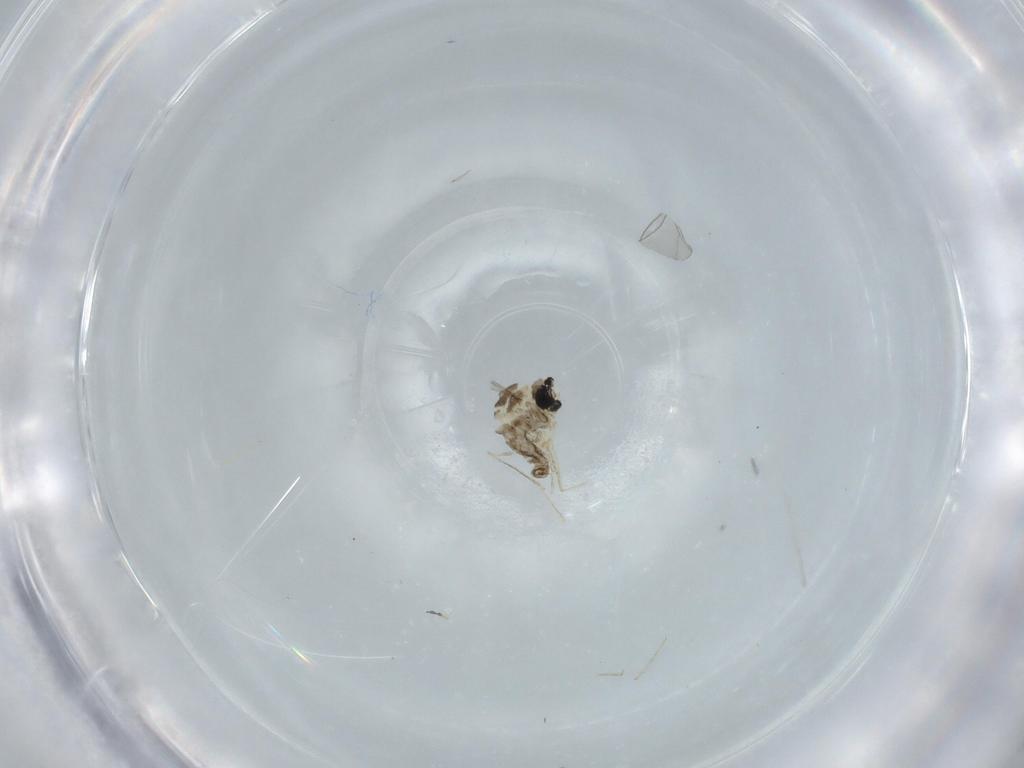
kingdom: Animalia
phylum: Arthropoda
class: Insecta
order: Diptera
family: Cecidomyiidae
